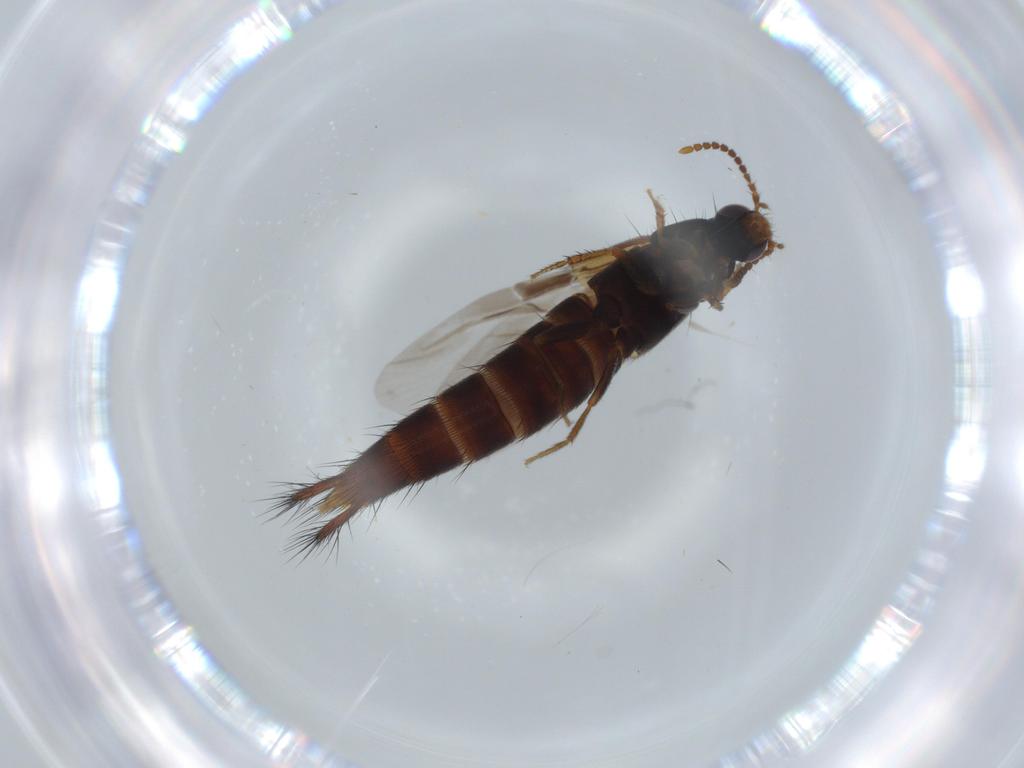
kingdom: Animalia
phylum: Arthropoda
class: Insecta
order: Coleoptera
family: Staphylinidae
